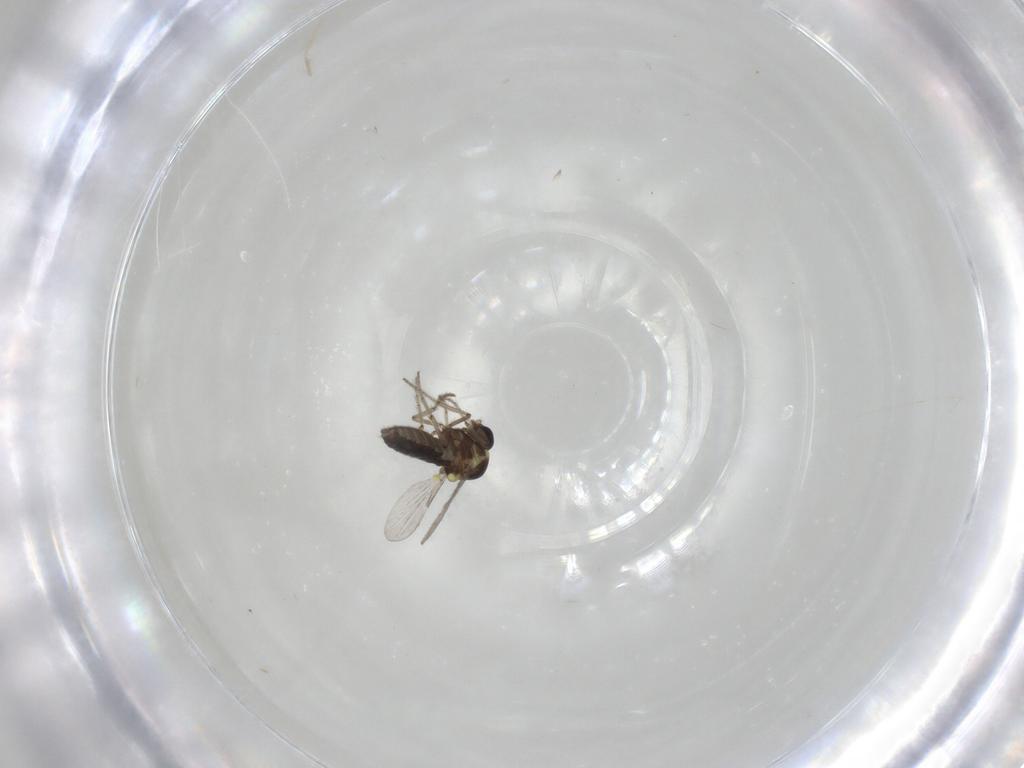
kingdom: Animalia
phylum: Arthropoda
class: Insecta
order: Diptera
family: Ceratopogonidae
